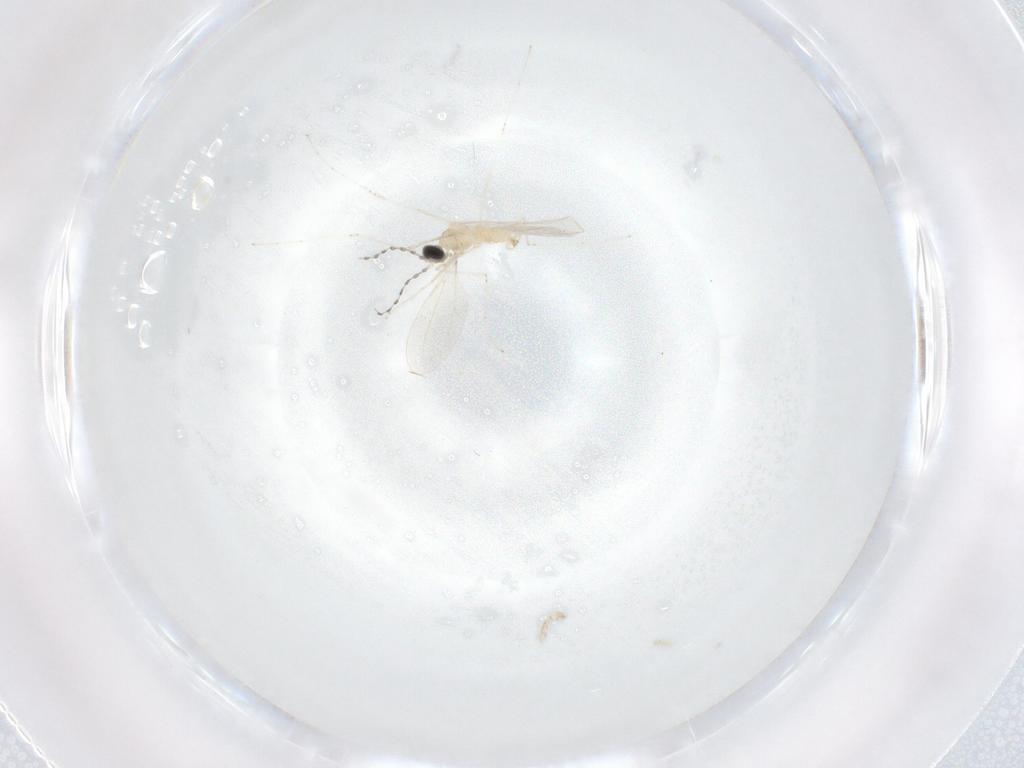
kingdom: Animalia
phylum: Arthropoda
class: Insecta
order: Diptera
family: Cecidomyiidae
